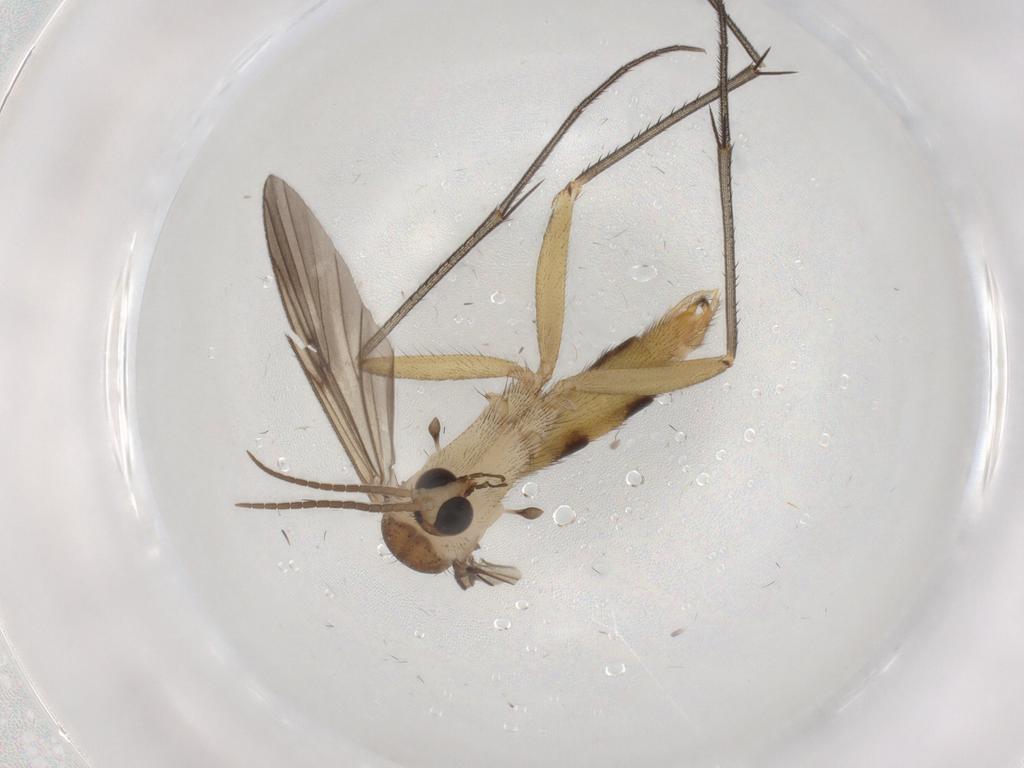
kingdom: Animalia
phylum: Arthropoda
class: Insecta
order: Diptera
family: Mycetophilidae
